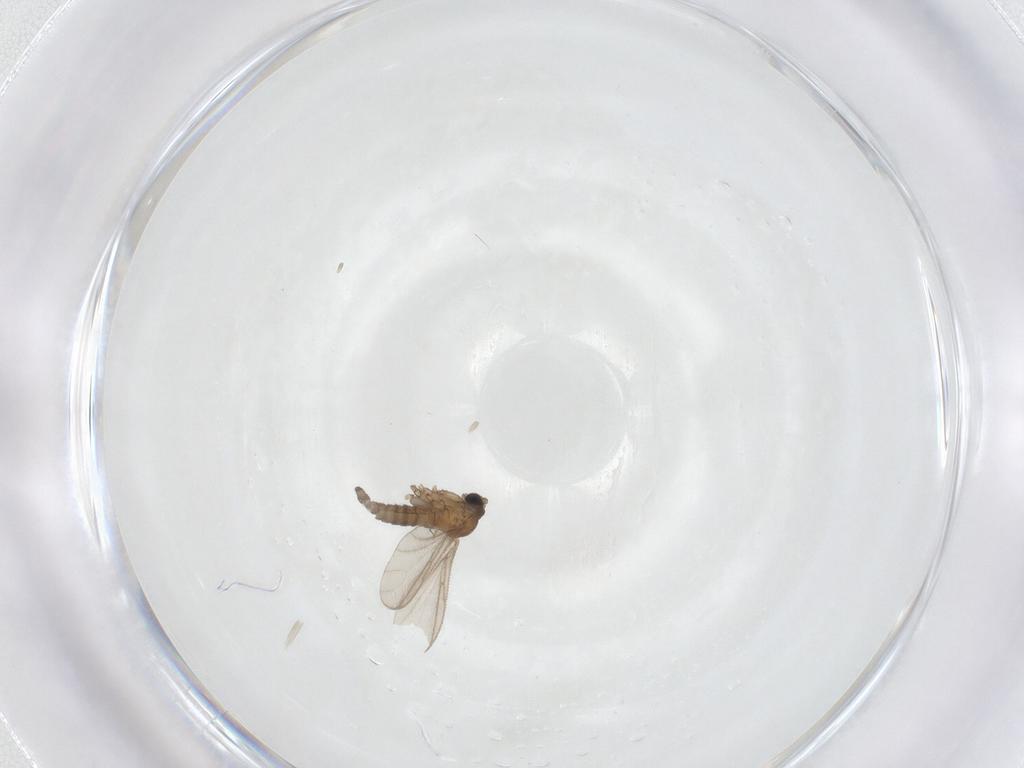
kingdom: Animalia
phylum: Arthropoda
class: Insecta
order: Diptera
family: Sciaridae
